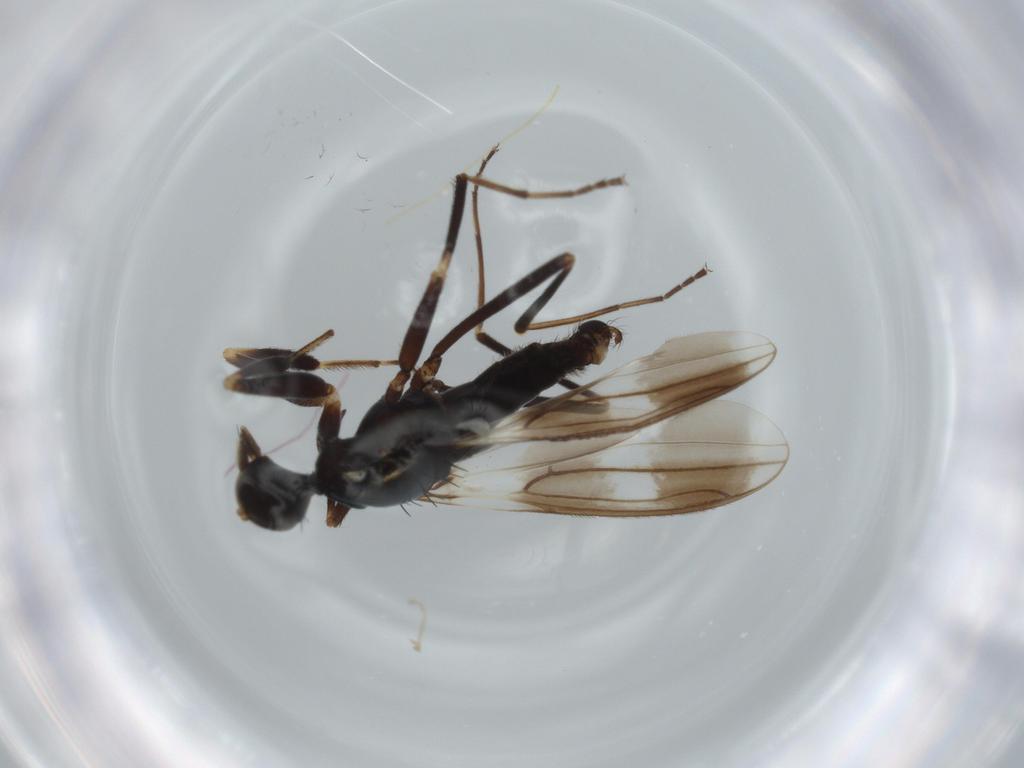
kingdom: Animalia
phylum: Arthropoda
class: Insecta
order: Diptera
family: Hybotidae
